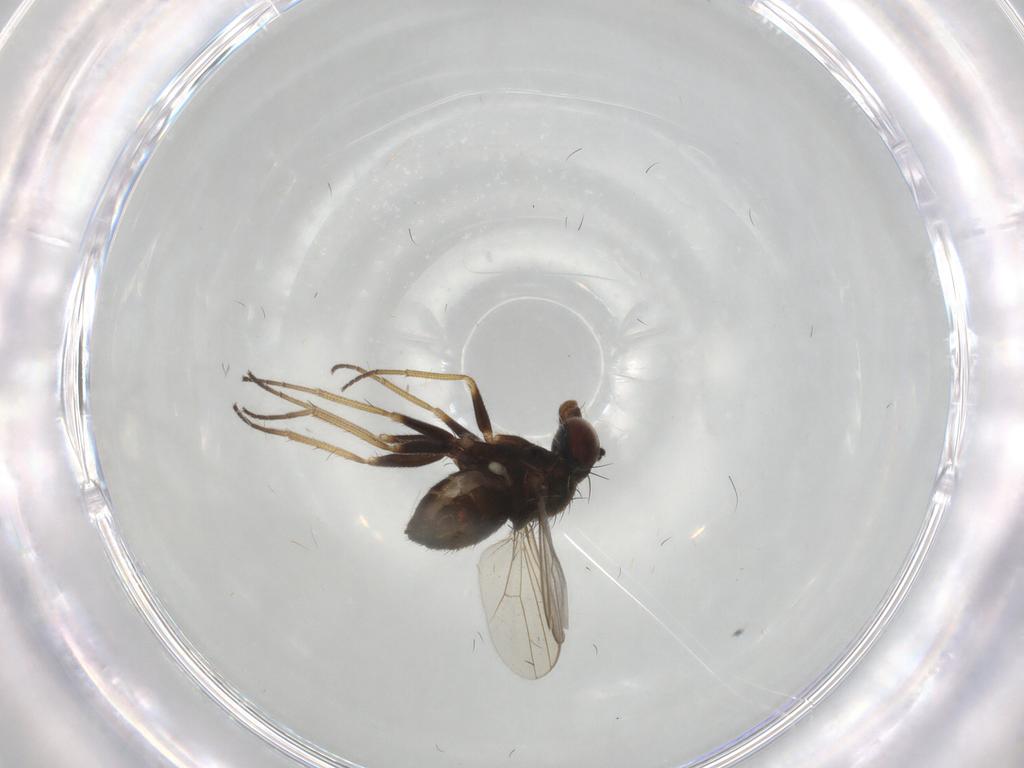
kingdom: Animalia
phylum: Arthropoda
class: Insecta
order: Diptera
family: Dolichopodidae
